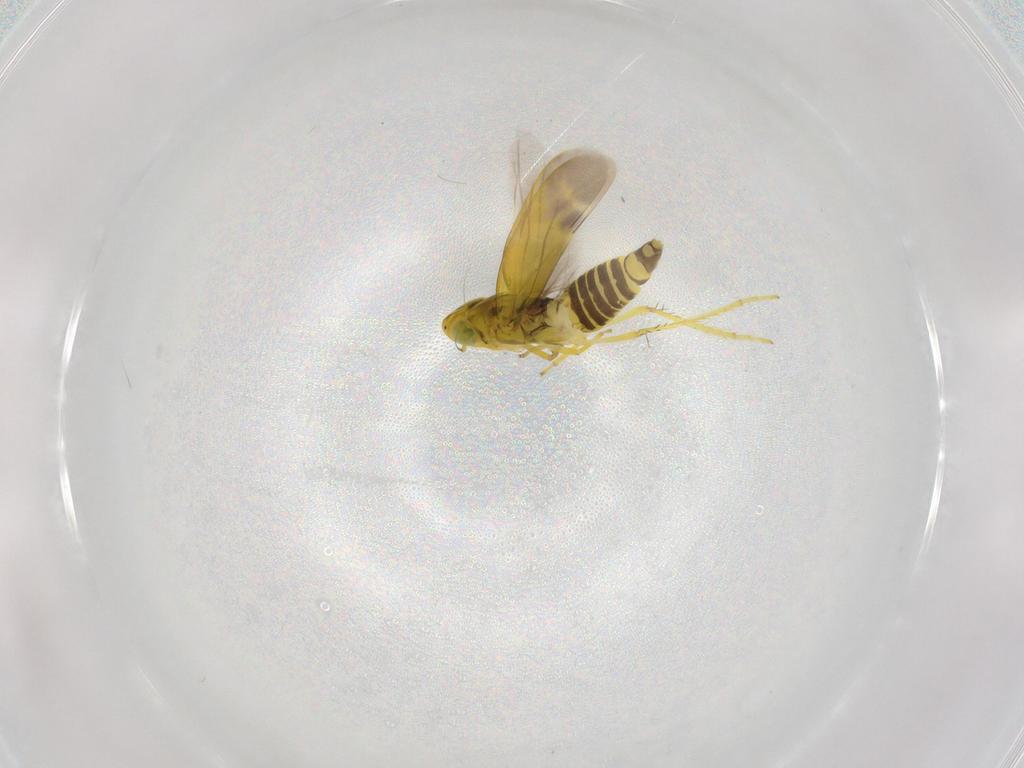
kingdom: Animalia
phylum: Arthropoda
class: Insecta
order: Hemiptera
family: Cicadellidae
